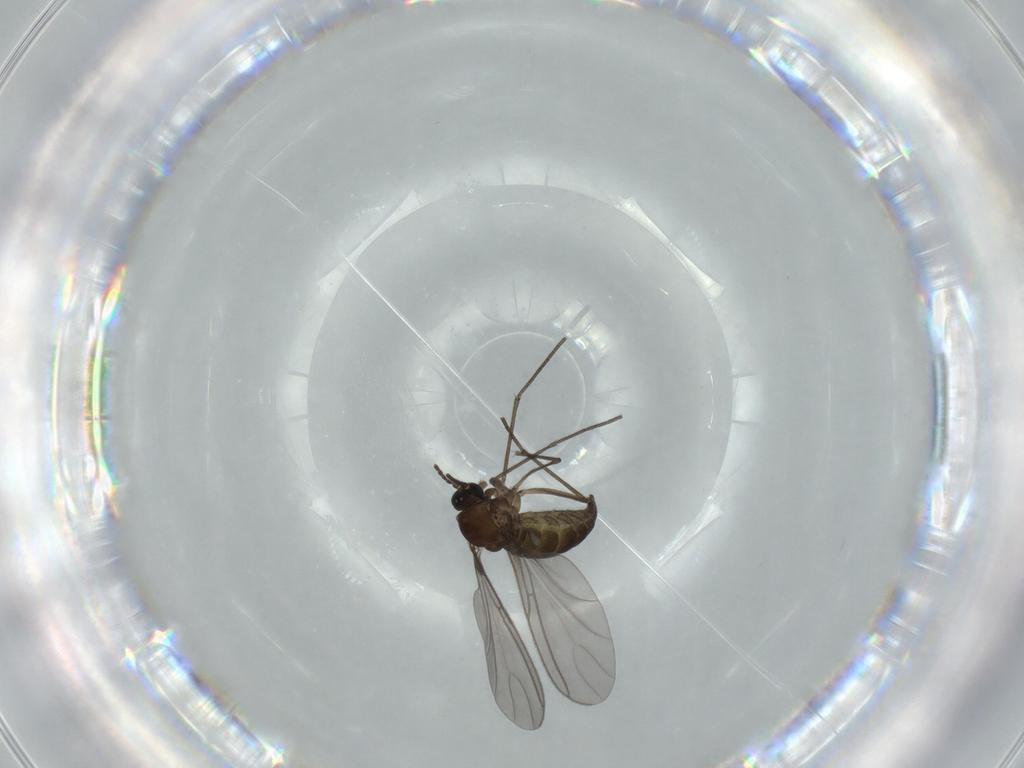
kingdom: Animalia
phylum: Arthropoda
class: Insecta
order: Diptera
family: Sciaridae
